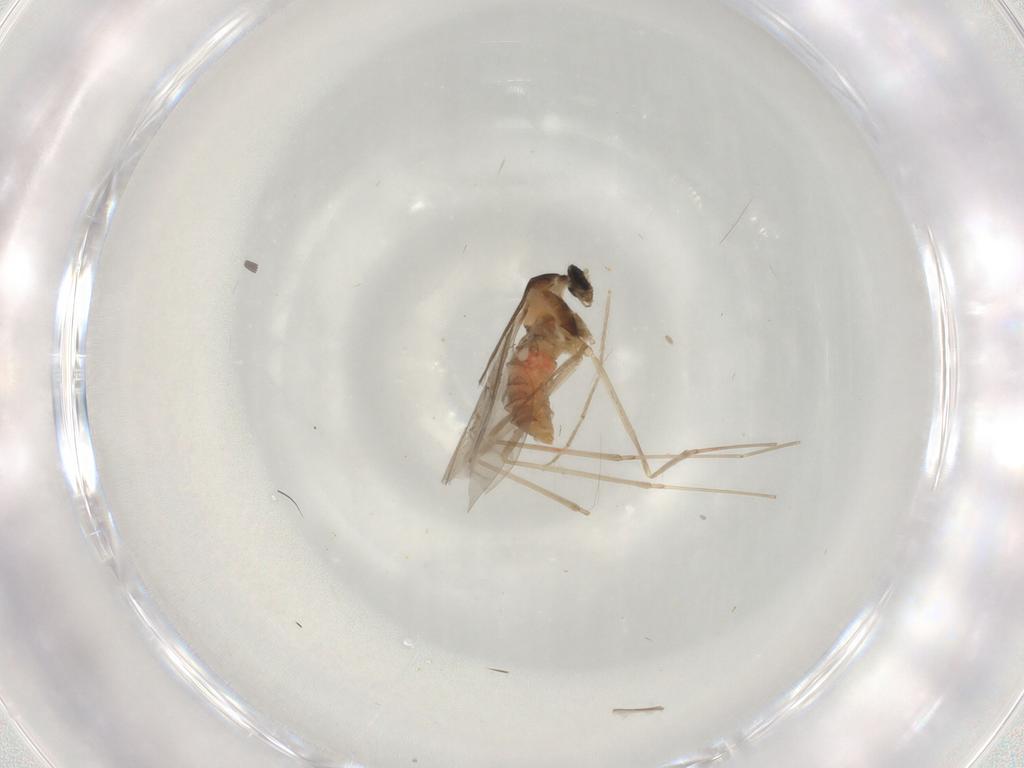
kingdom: Animalia
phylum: Arthropoda
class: Insecta
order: Diptera
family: Cecidomyiidae
